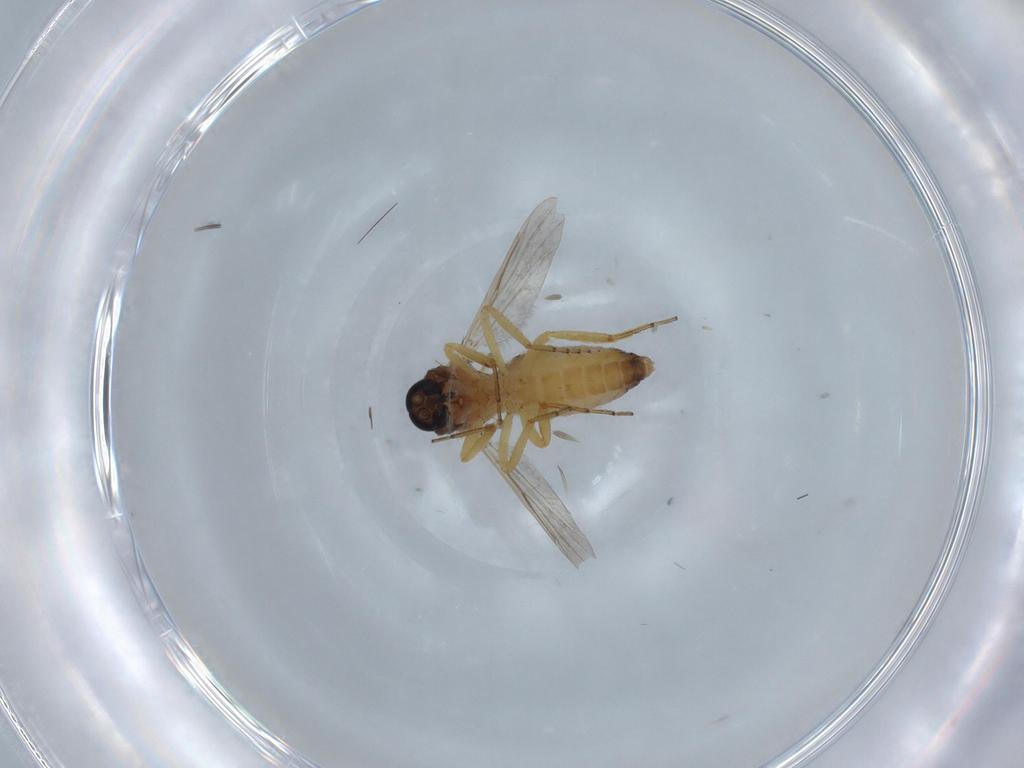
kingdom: Animalia
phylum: Arthropoda
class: Insecta
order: Diptera
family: Ceratopogonidae
